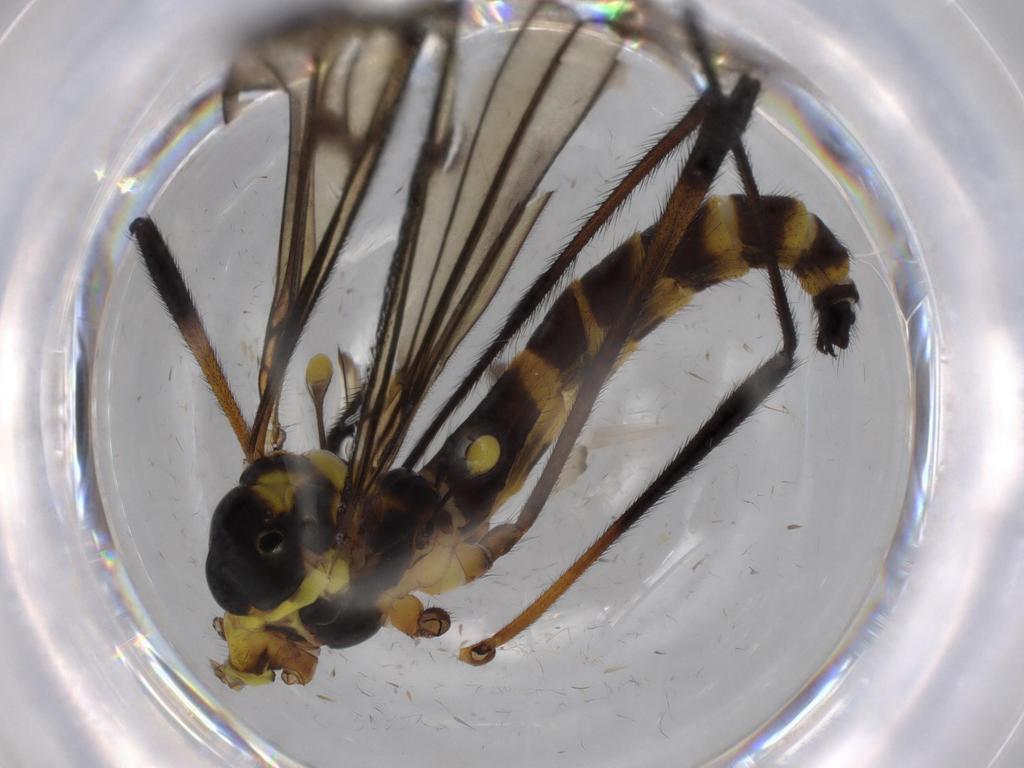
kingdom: Animalia
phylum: Arthropoda
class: Insecta
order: Diptera
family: Limoniidae
